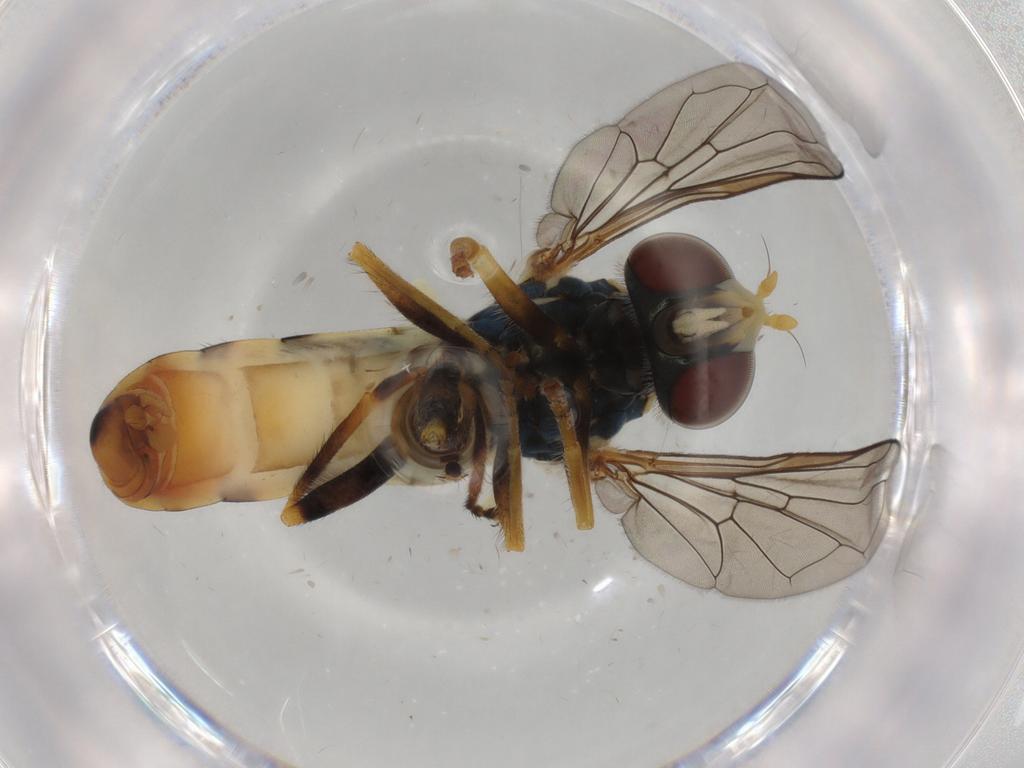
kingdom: Animalia
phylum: Arthropoda
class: Insecta
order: Diptera
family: Syrphidae
